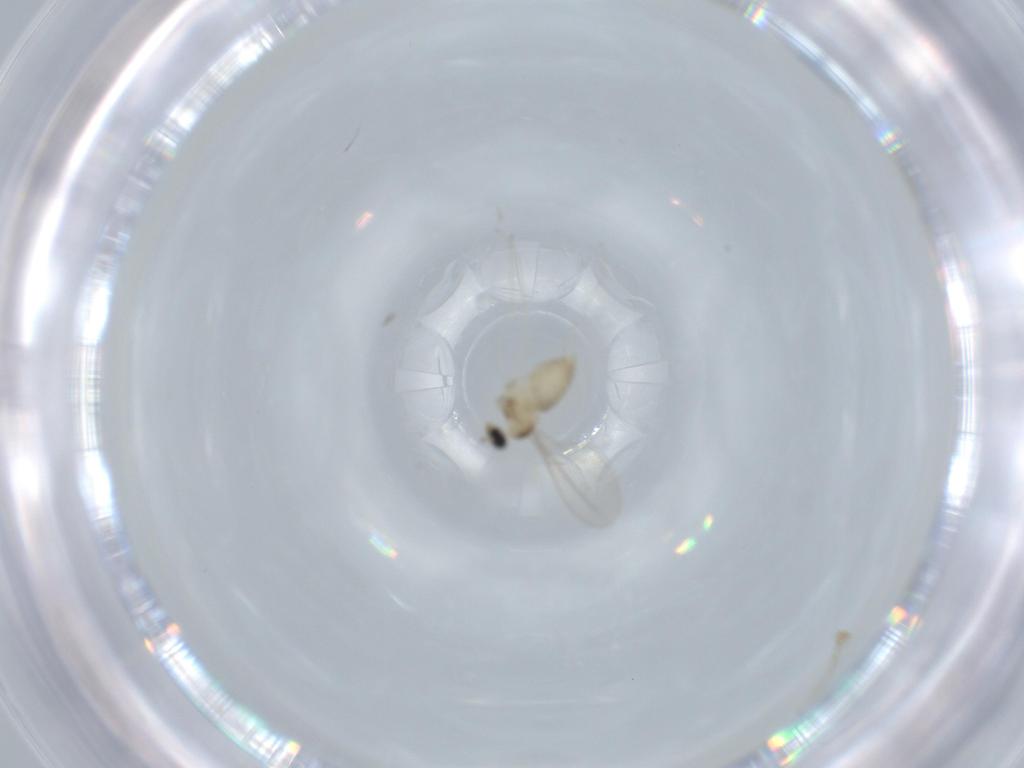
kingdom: Animalia
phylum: Arthropoda
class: Insecta
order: Diptera
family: Cecidomyiidae
